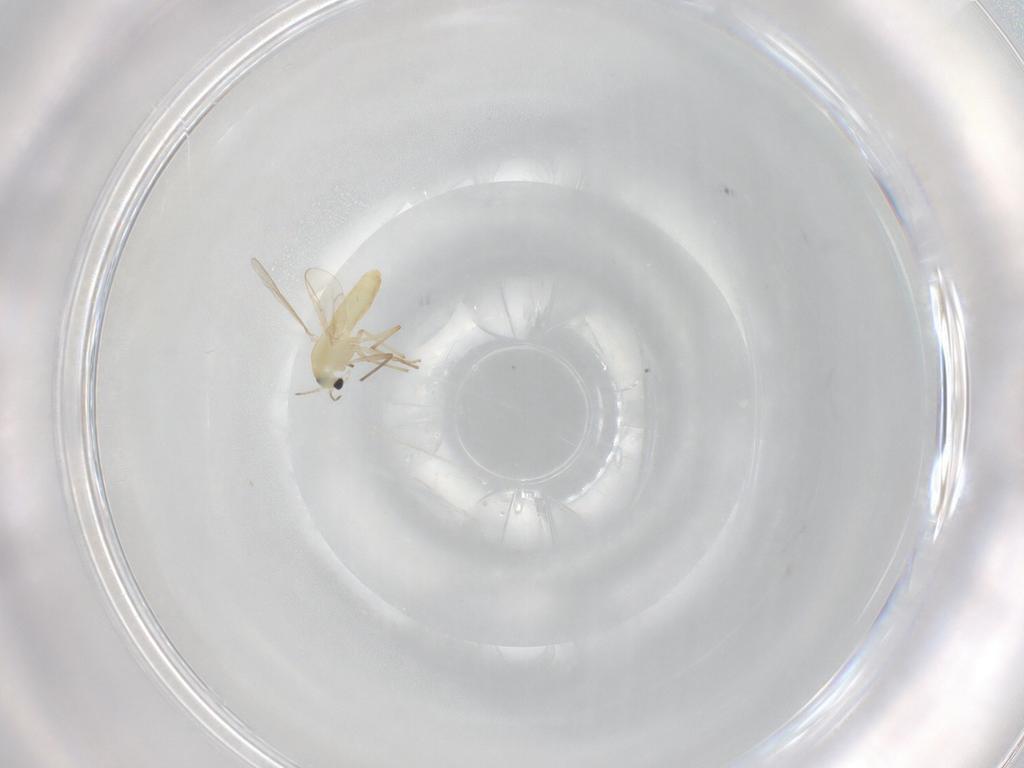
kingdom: Animalia
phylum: Arthropoda
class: Insecta
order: Diptera
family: Chironomidae
